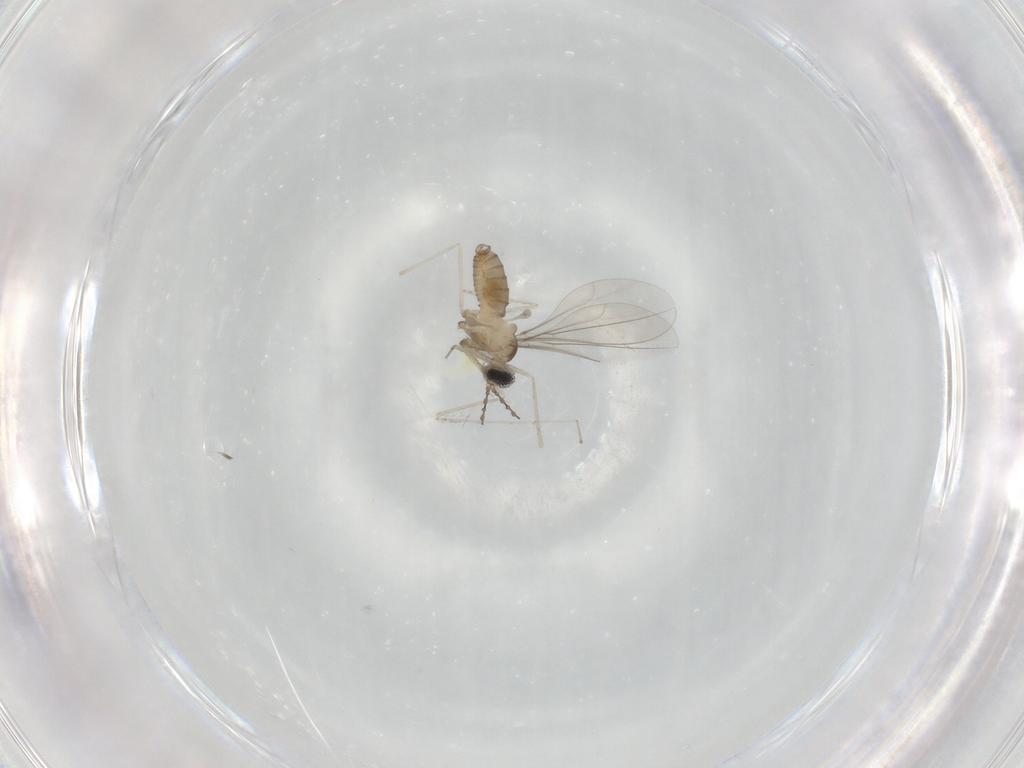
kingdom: Animalia
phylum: Arthropoda
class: Insecta
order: Diptera
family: Cecidomyiidae
